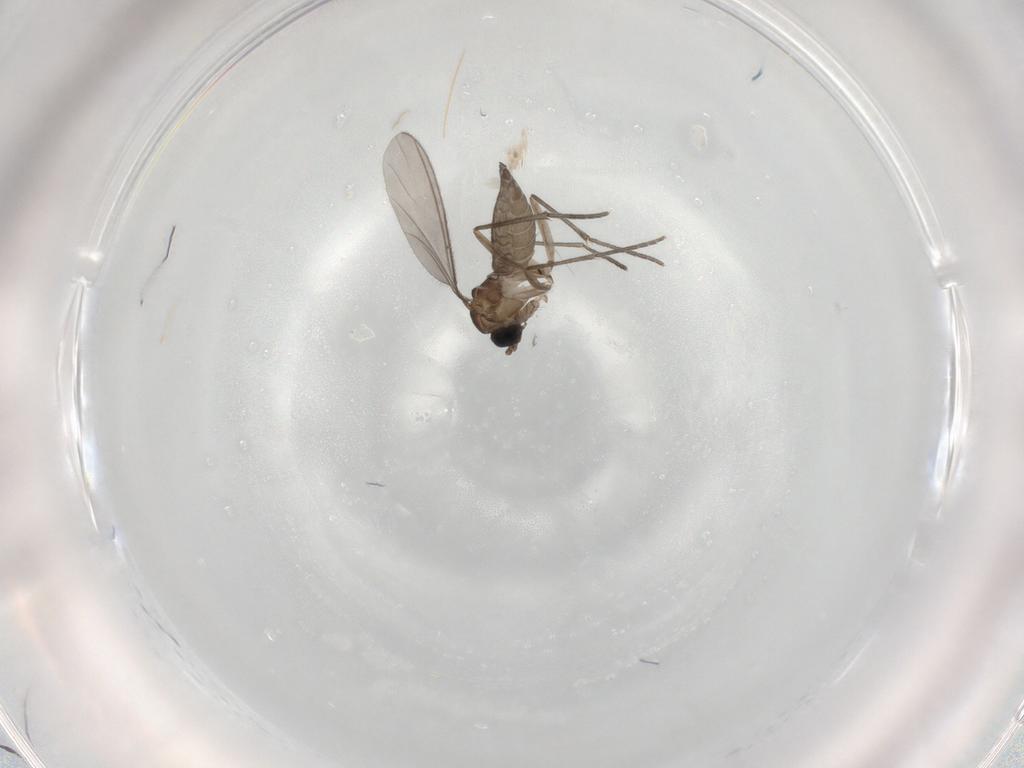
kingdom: Animalia
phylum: Arthropoda
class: Insecta
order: Diptera
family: Sciaridae
